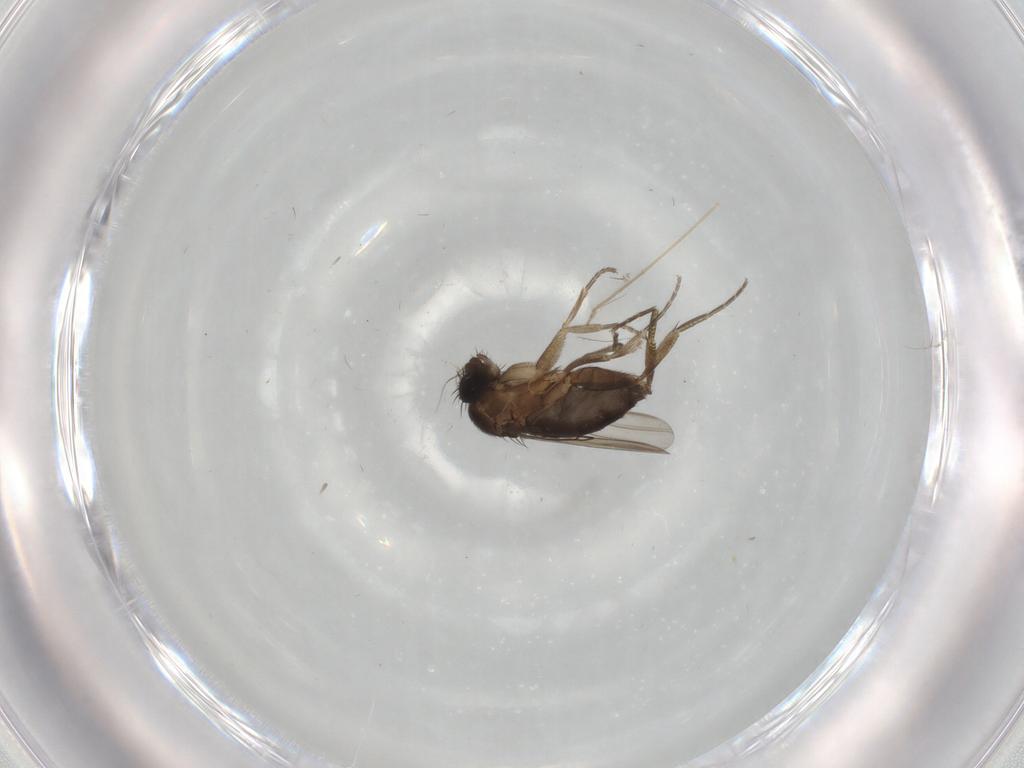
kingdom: Animalia
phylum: Arthropoda
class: Insecta
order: Diptera
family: Phoridae
